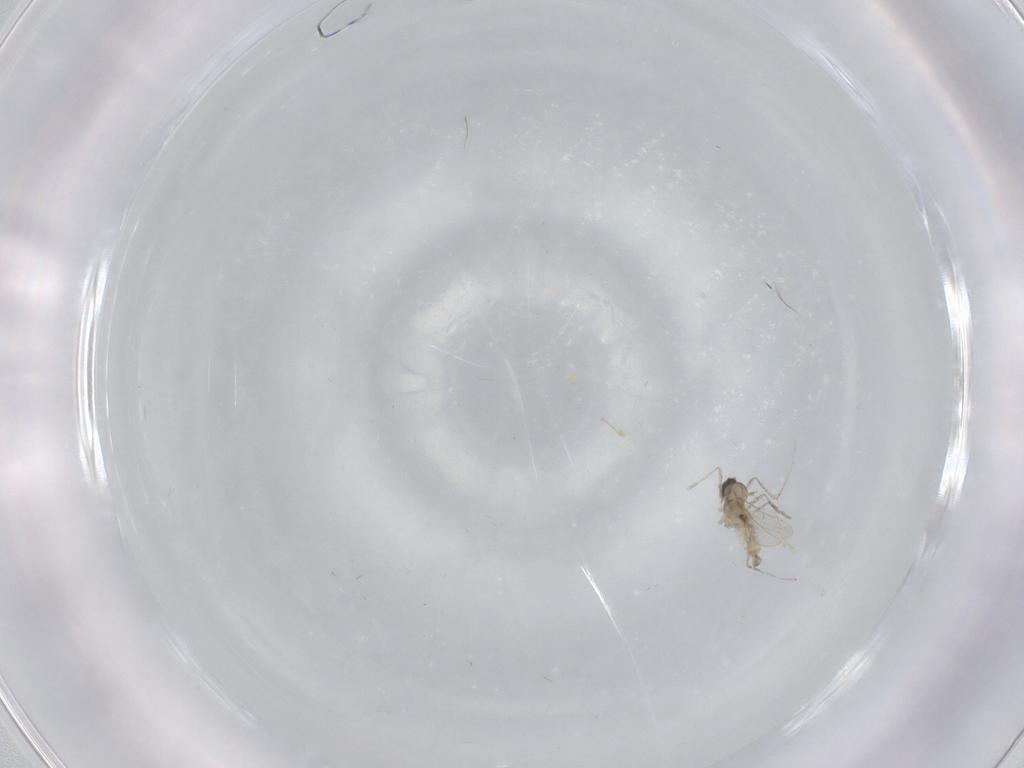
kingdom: Animalia
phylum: Arthropoda
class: Insecta
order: Diptera
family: Cecidomyiidae
